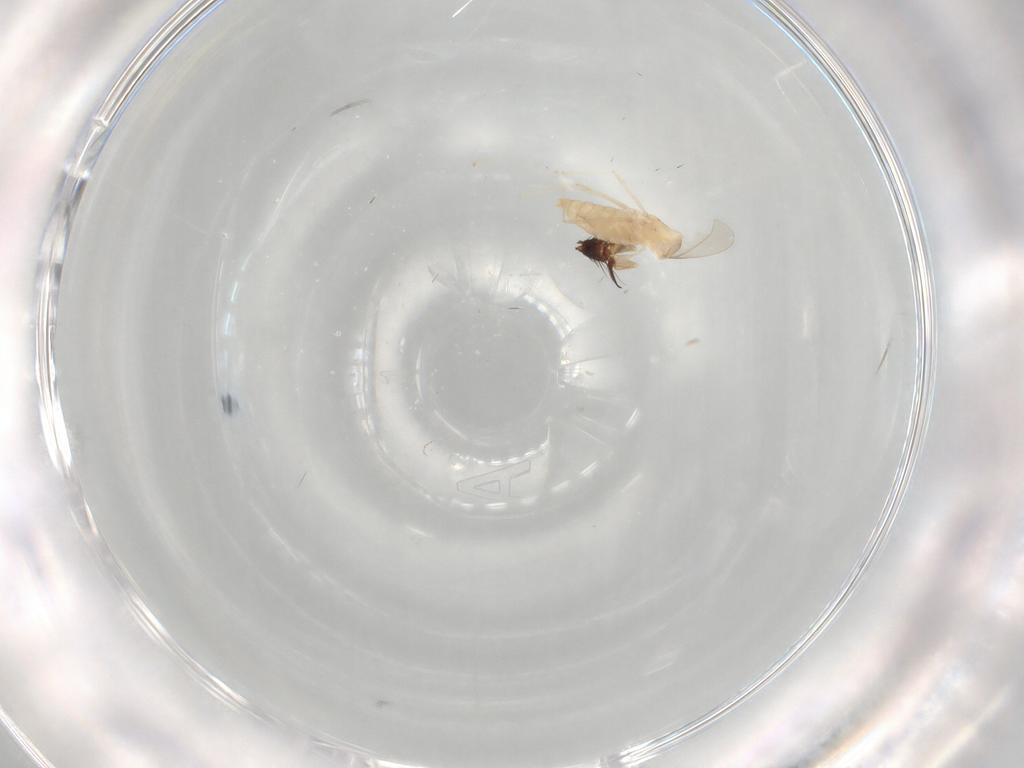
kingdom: Animalia
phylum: Arthropoda
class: Insecta
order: Diptera
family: Cecidomyiidae
